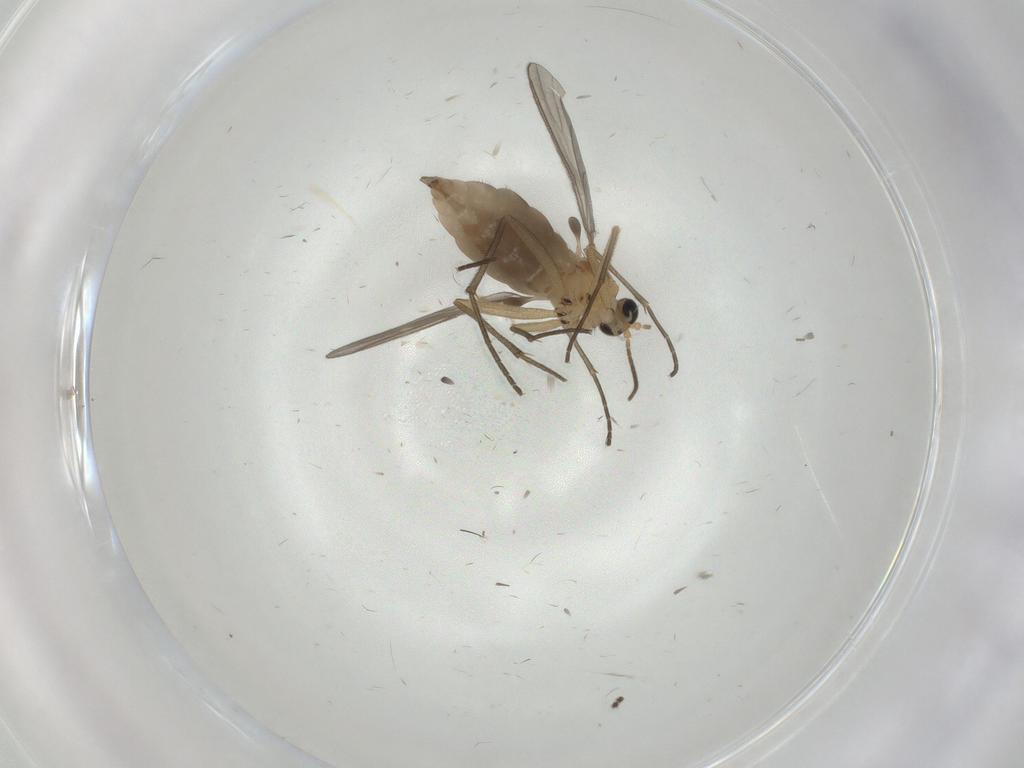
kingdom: Animalia
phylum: Arthropoda
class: Insecta
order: Diptera
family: Cecidomyiidae
